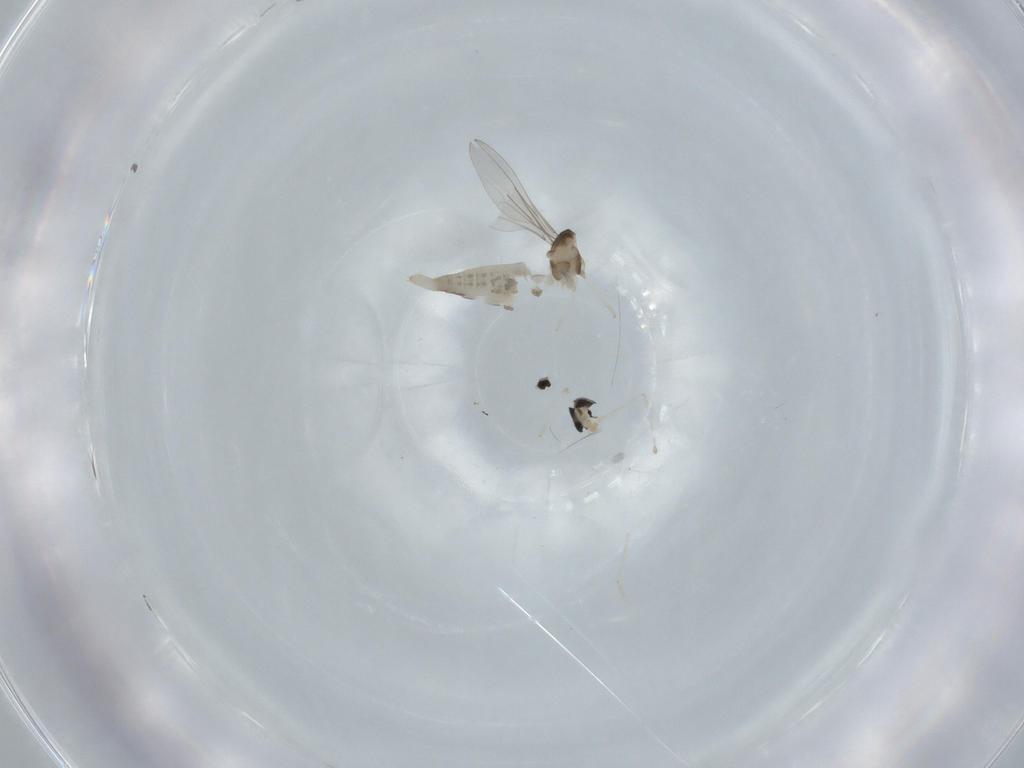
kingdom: Animalia
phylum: Arthropoda
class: Insecta
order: Diptera
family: Cecidomyiidae
